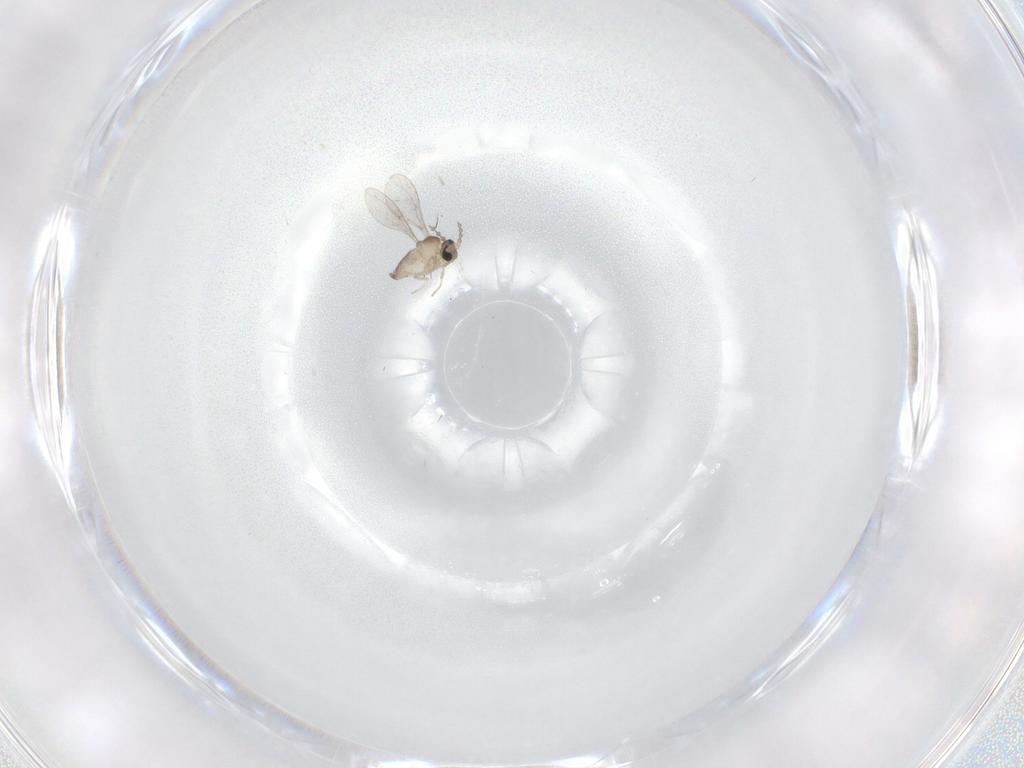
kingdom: Animalia
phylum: Arthropoda
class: Insecta
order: Diptera
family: Cecidomyiidae
